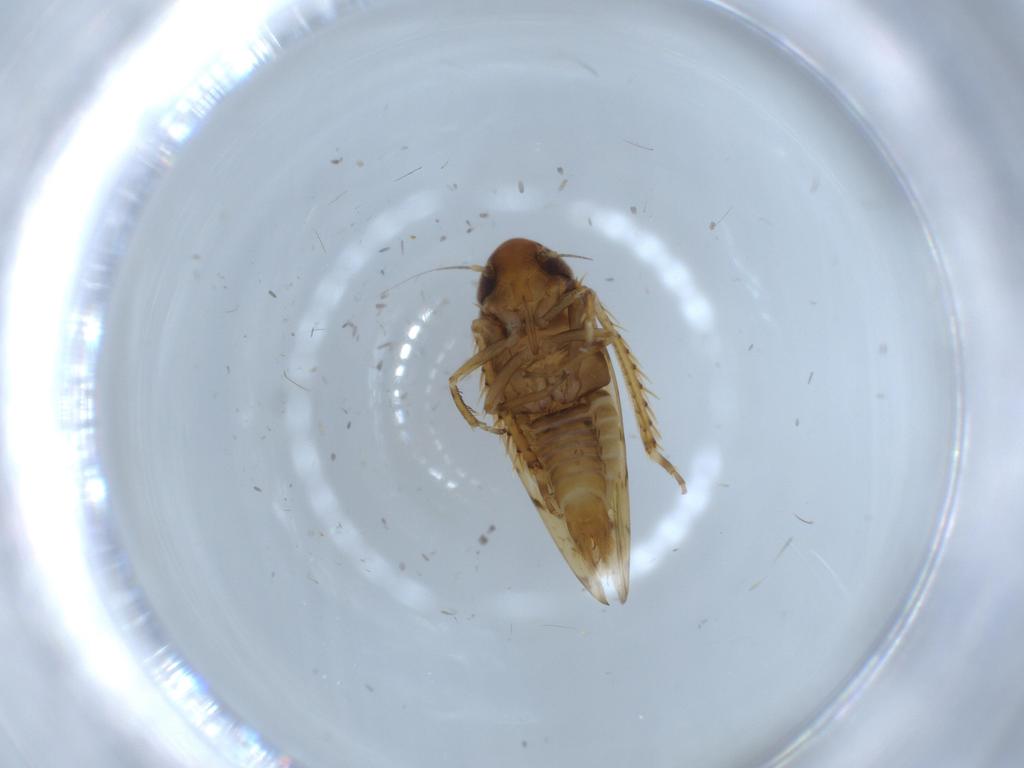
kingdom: Animalia
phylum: Arthropoda
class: Insecta
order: Hemiptera
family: Cicadellidae
